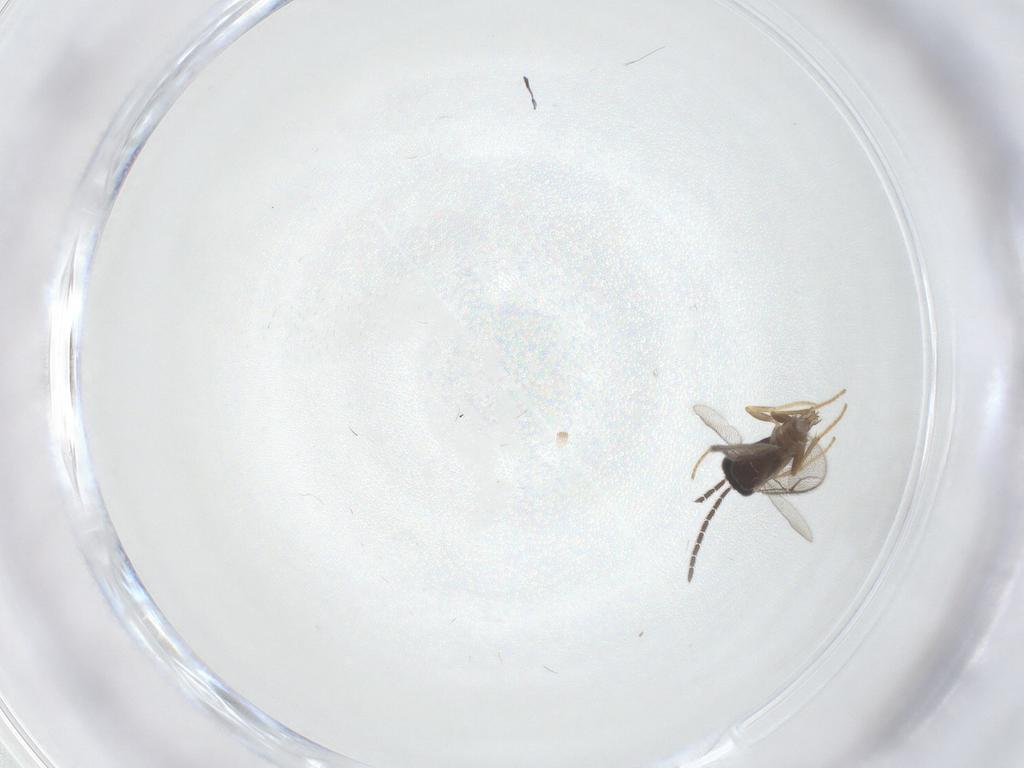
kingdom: Animalia
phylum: Arthropoda
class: Insecta
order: Hymenoptera
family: Dryinidae
